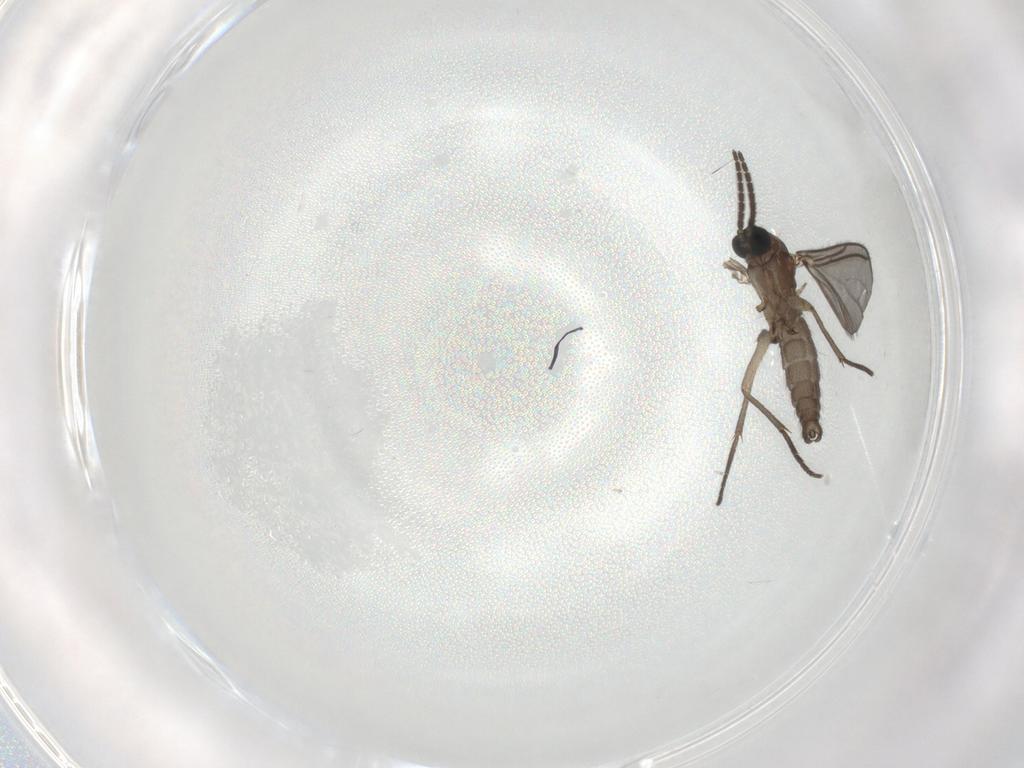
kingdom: Animalia
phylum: Arthropoda
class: Insecta
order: Diptera
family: Sciaridae
